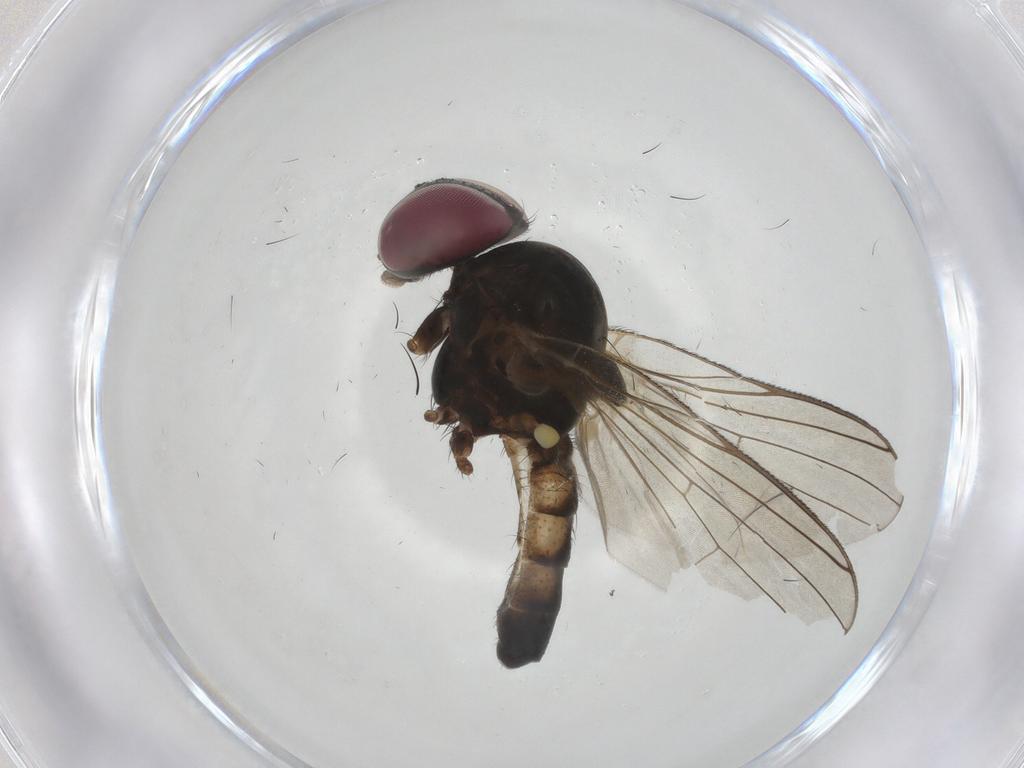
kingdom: Animalia
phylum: Arthropoda
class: Insecta
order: Diptera
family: Fanniidae
